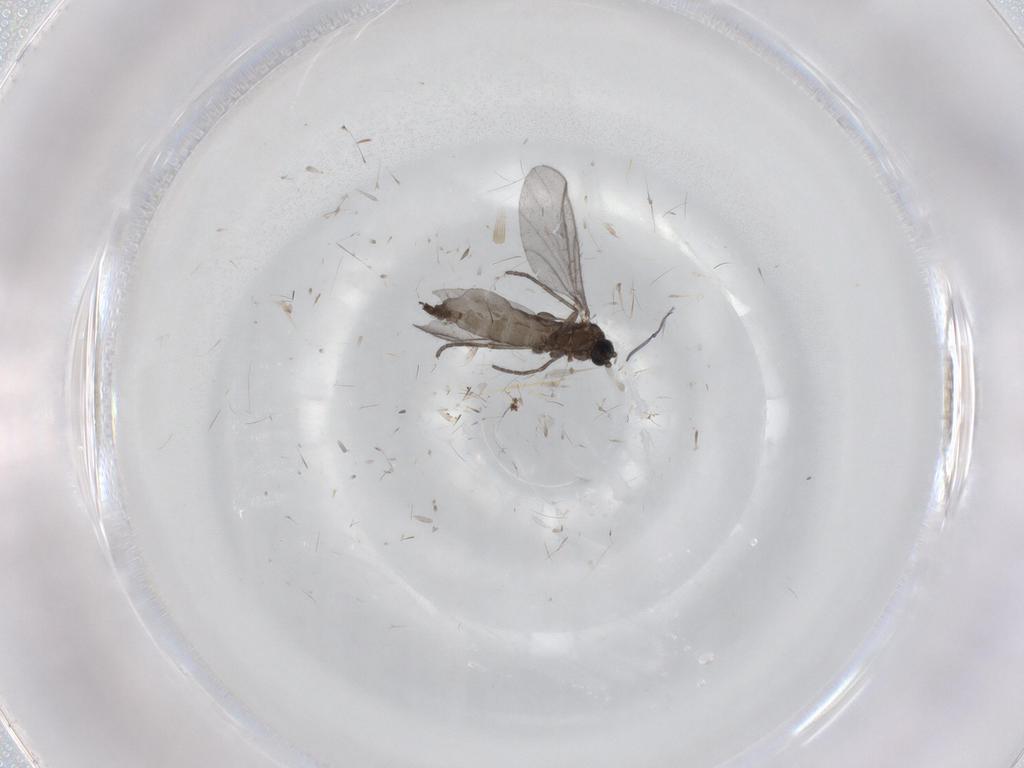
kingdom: Animalia
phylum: Arthropoda
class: Insecta
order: Diptera
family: Sciaridae
